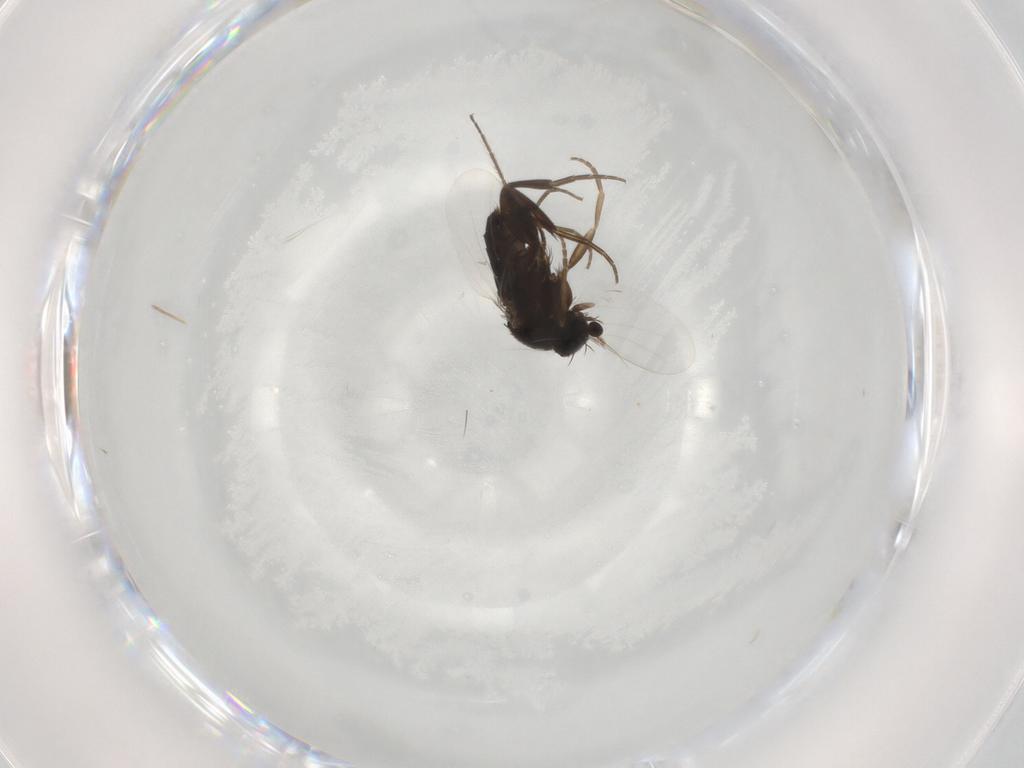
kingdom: Animalia
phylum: Arthropoda
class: Insecta
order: Diptera
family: Phoridae
